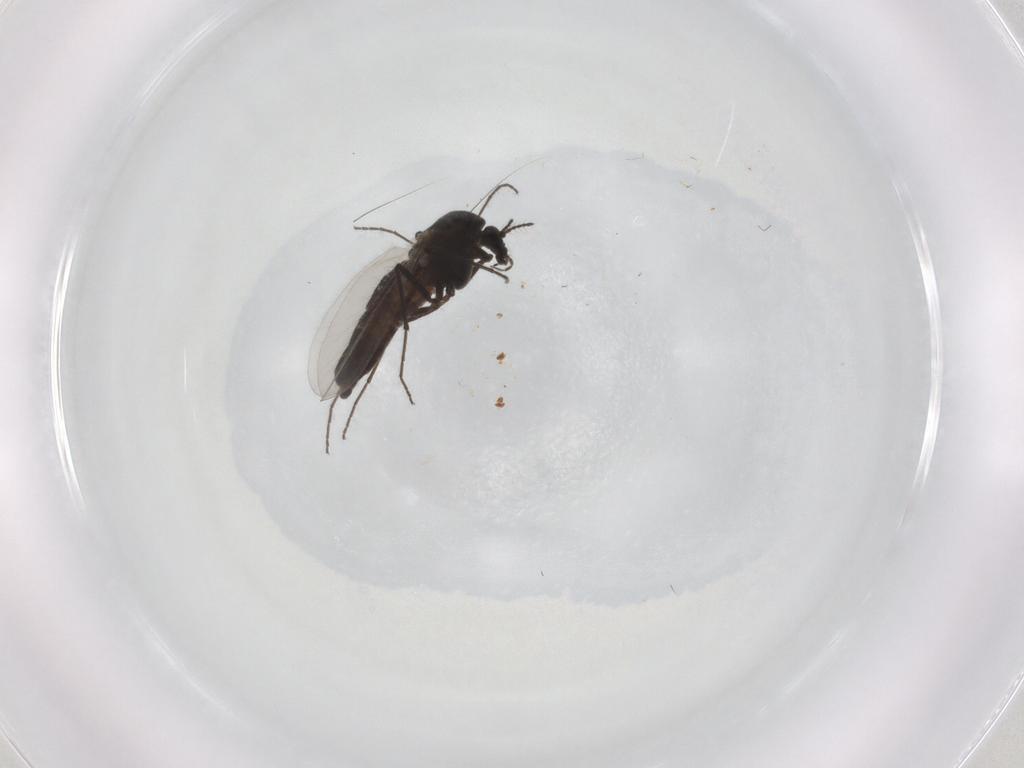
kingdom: Animalia
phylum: Arthropoda
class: Insecta
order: Diptera
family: Chironomidae
